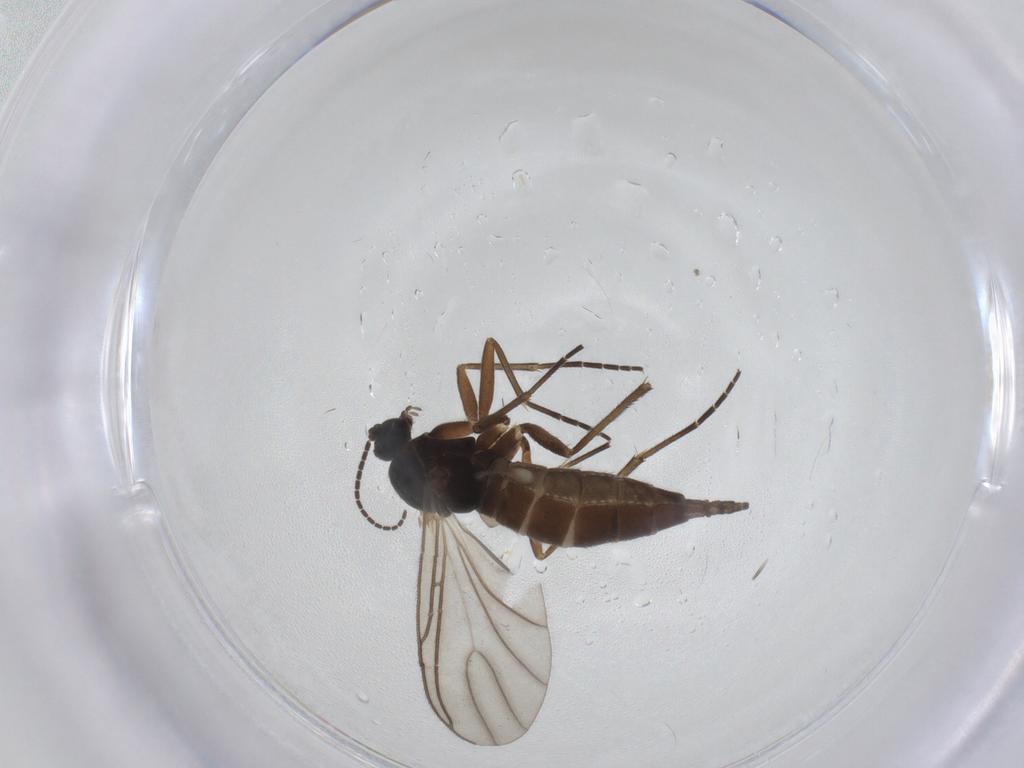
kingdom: Animalia
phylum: Arthropoda
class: Insecta
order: Diptera
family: Sciaridae
